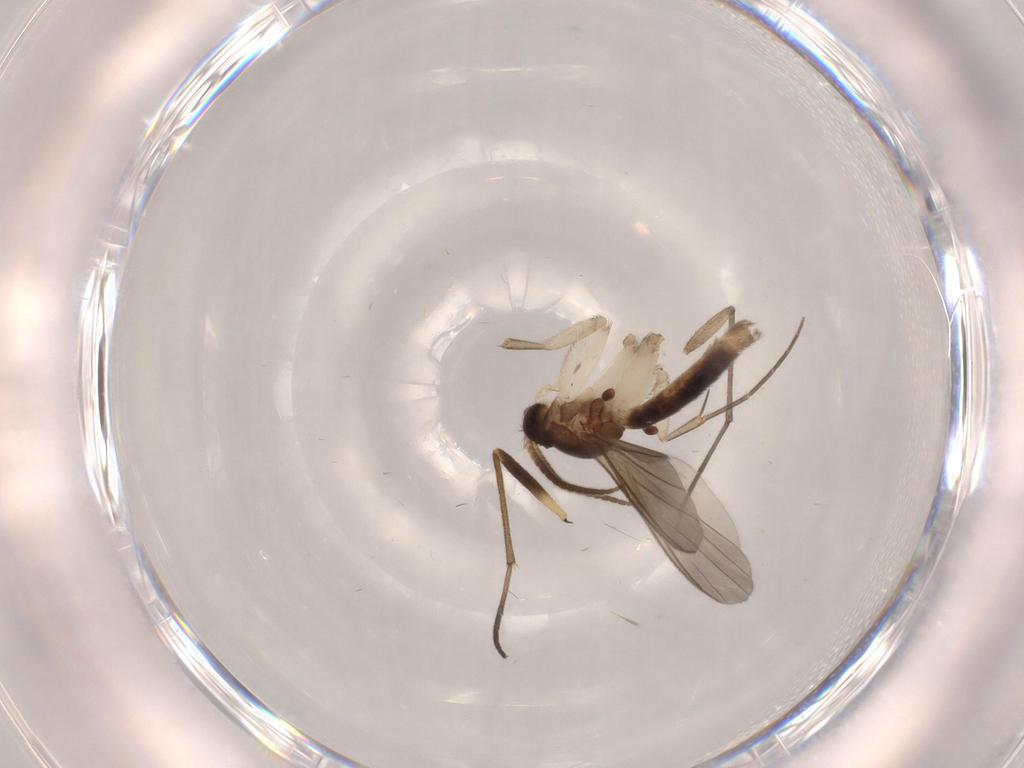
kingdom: Animalia
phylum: Arthropoda
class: Insecta
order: Diptera
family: Mycetophilidae
